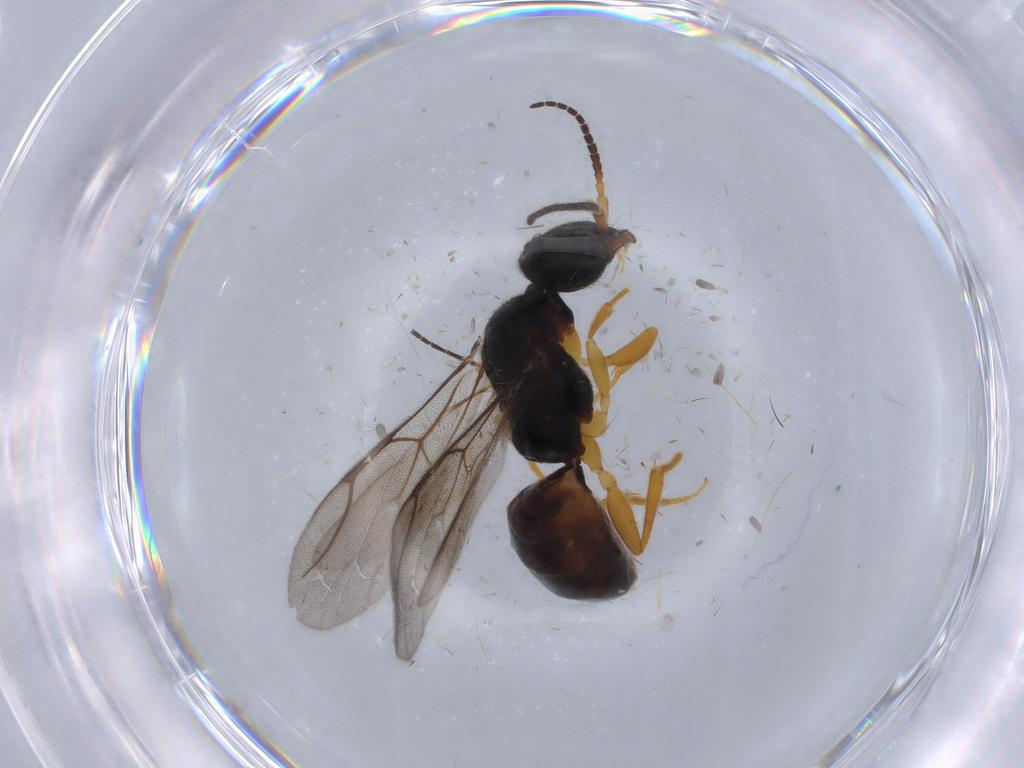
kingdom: Animalia
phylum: Arthropoda
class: Insecta
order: Hymenoptera
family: Bethylidae
